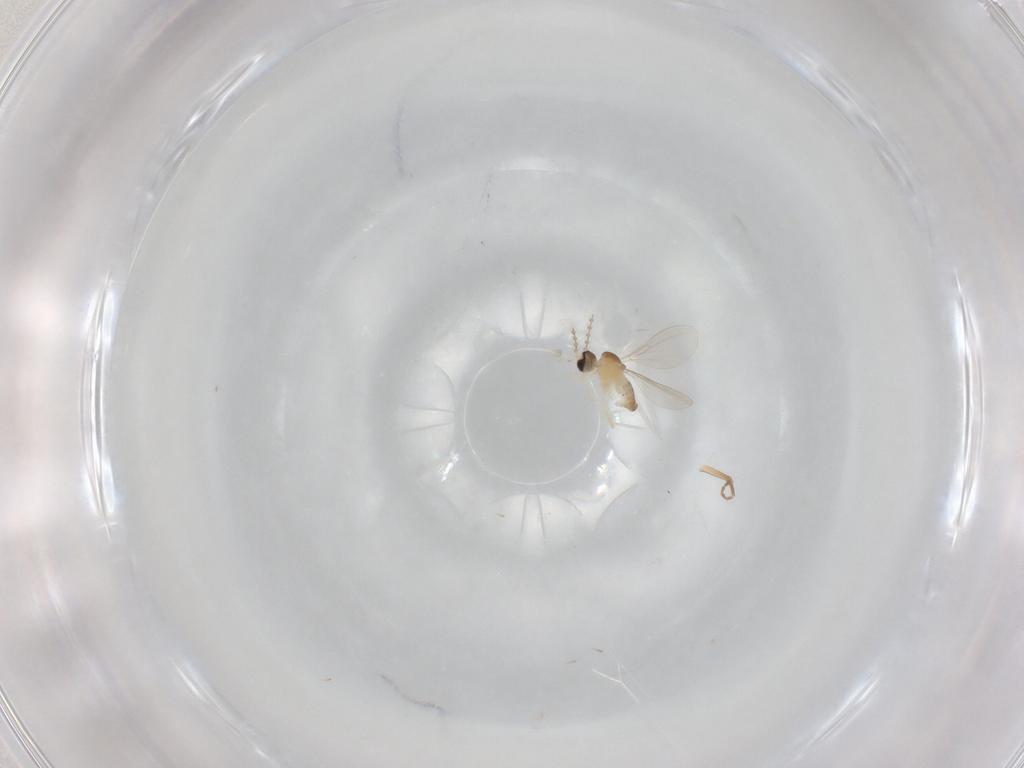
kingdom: Animalia
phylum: Arthropoda
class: Insecta
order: Diptera
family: Cecidomyiidae
